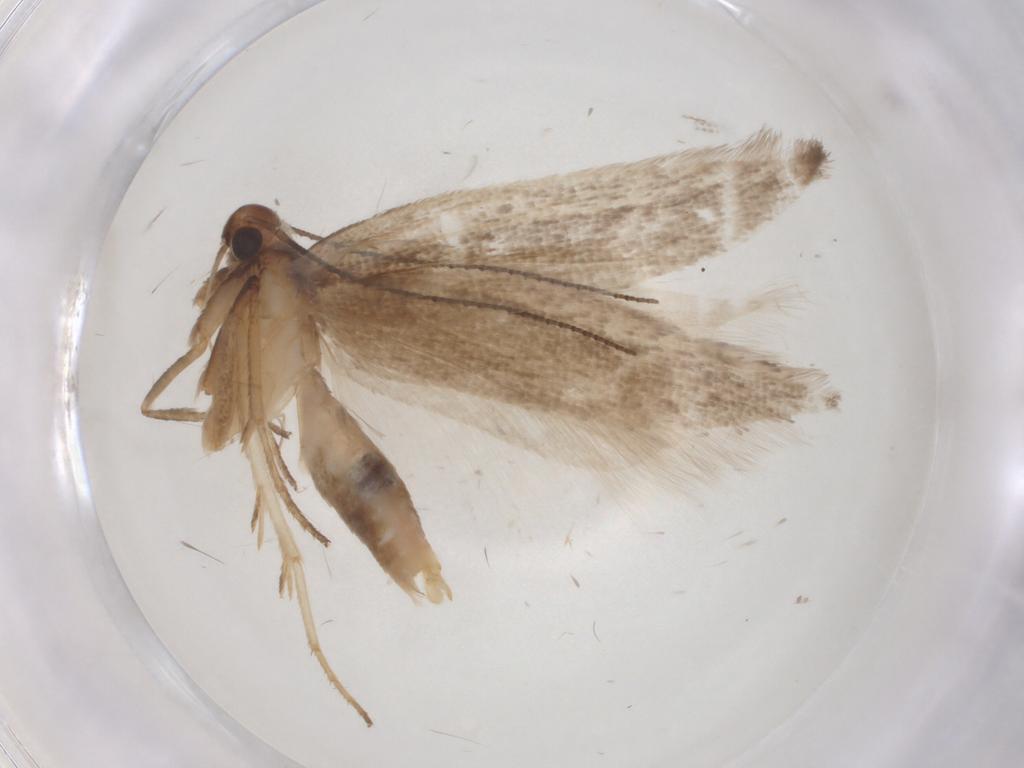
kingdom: Animalia
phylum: Arthropoda
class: Insecta
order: Lepidoptera
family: Gelechiidae
